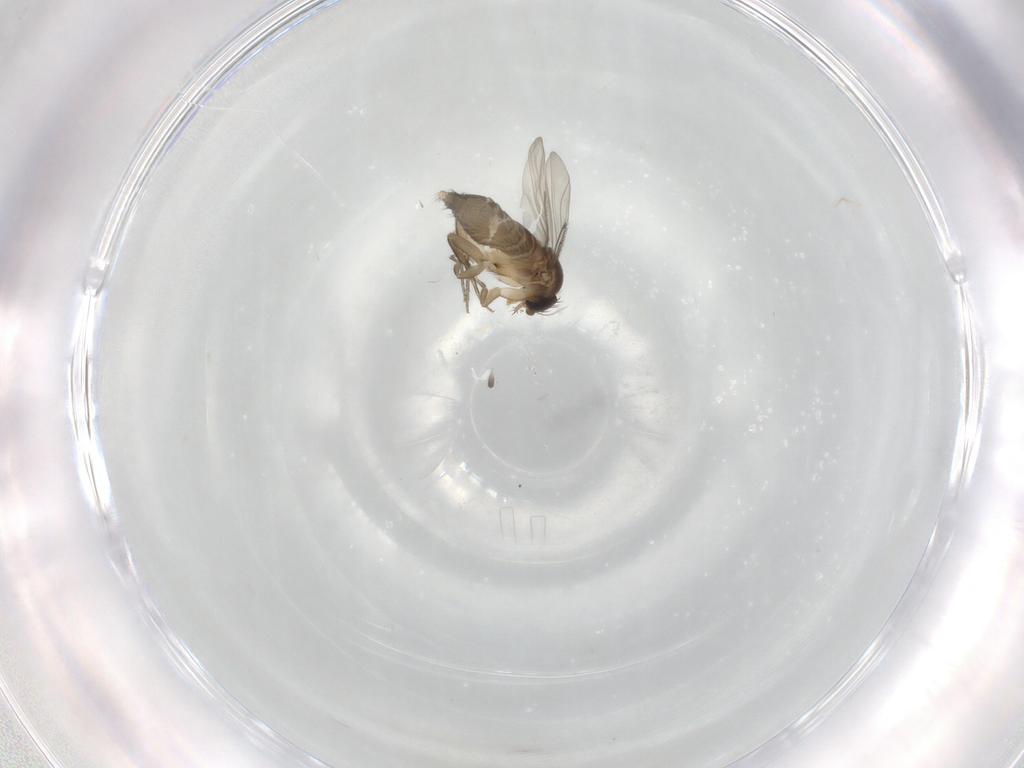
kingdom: Animalia
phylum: Arthropoda
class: Insecta
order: Diptera
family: Phoridae
